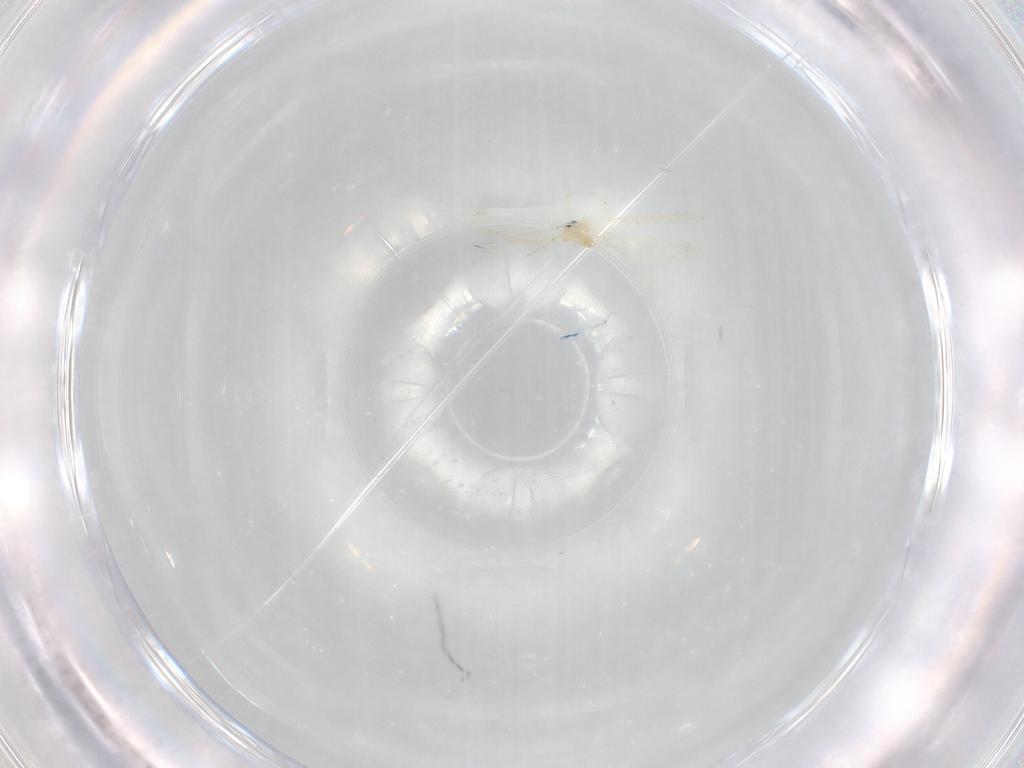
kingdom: Animalia
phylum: Arthropoda
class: Insecta
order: Diptera
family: Cecidomyiidae
